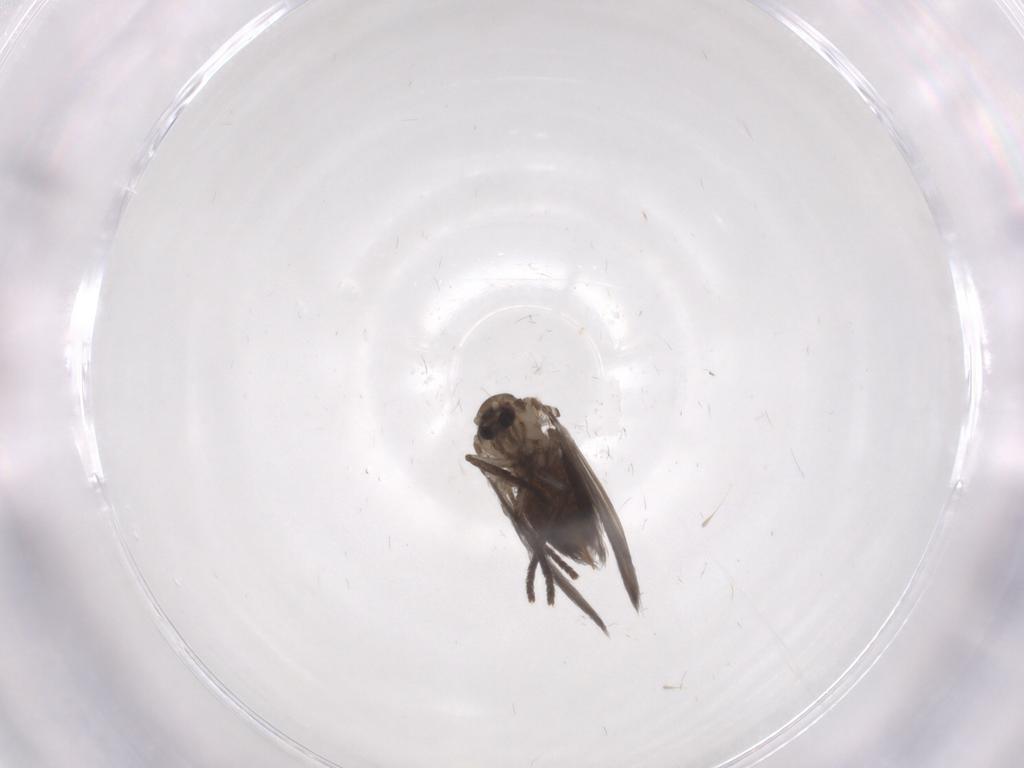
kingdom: Animalia
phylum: Arthropoda
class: Insecta
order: Diptera
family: Psychodidae
